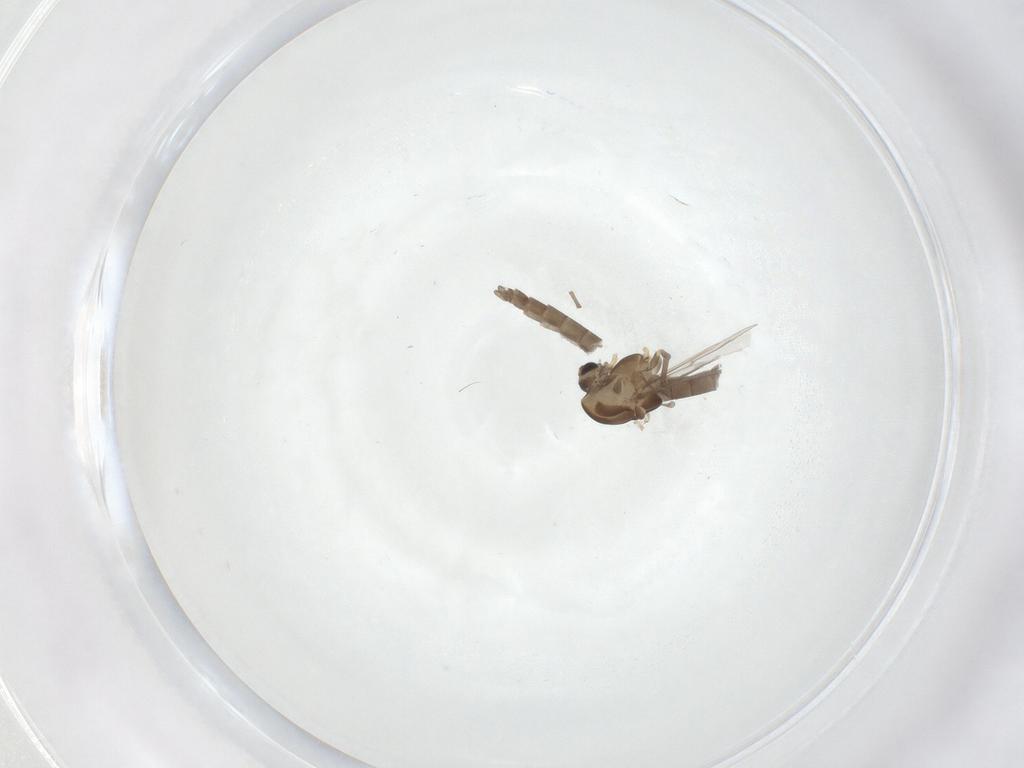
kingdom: Animalia
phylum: Arthropoda
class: Insecta
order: Diptera
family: Chironomidae
